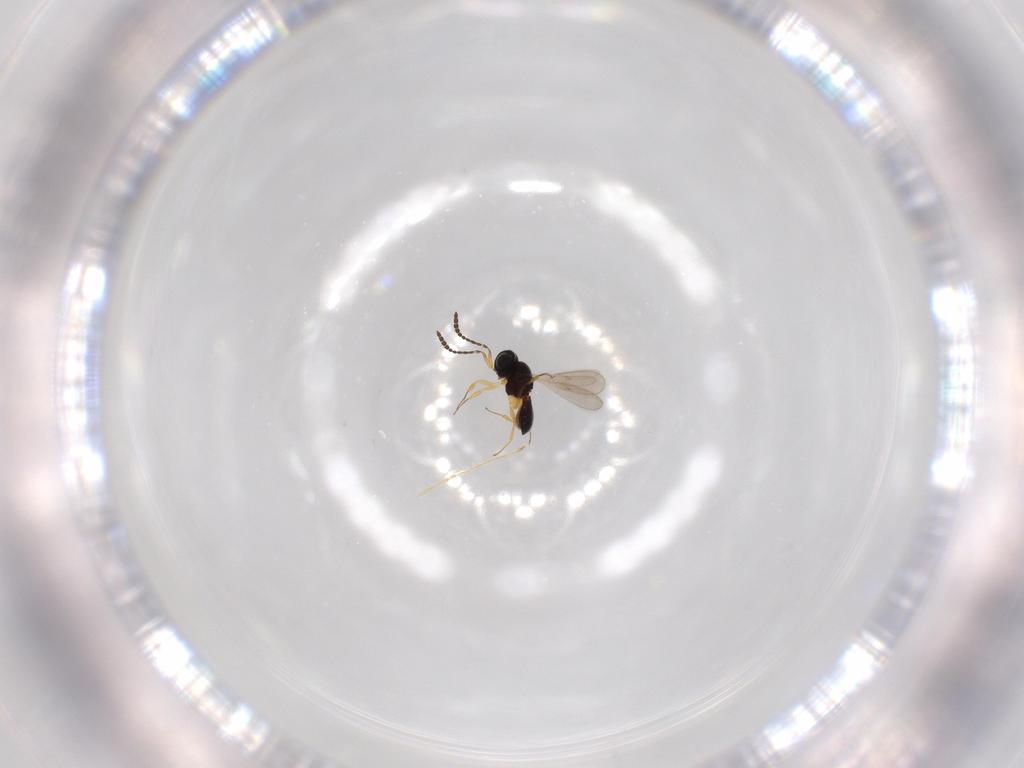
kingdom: Animalia
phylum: Arthropoda
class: Insecta
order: Hymenoptera
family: Scelionidae
